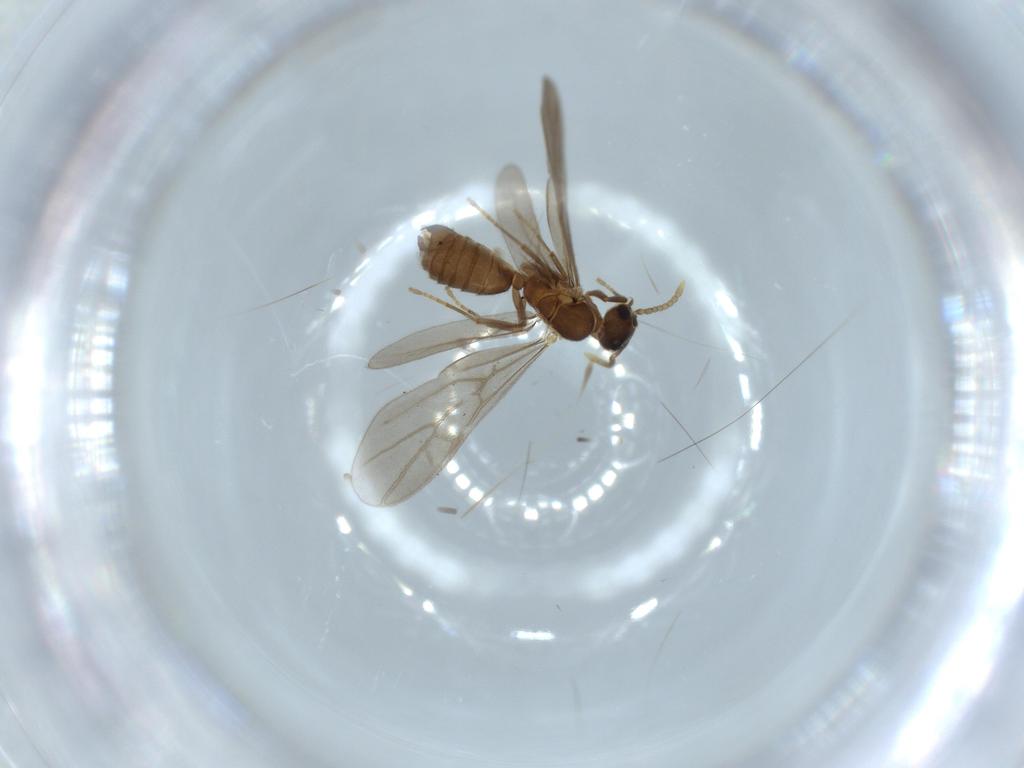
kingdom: Animalia
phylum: Arthropoda
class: Insecta
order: Hymenoptera
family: Formicidae
